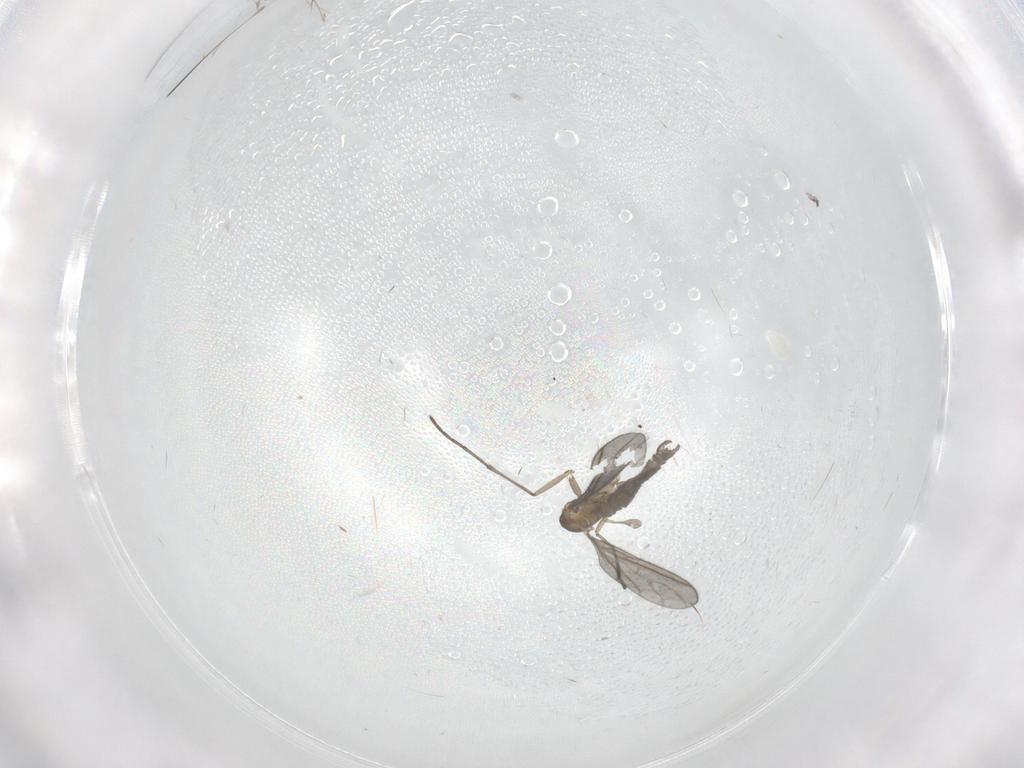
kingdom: Animalia
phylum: Arthropoda
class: Insecta
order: Diptera
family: Sciaridae
